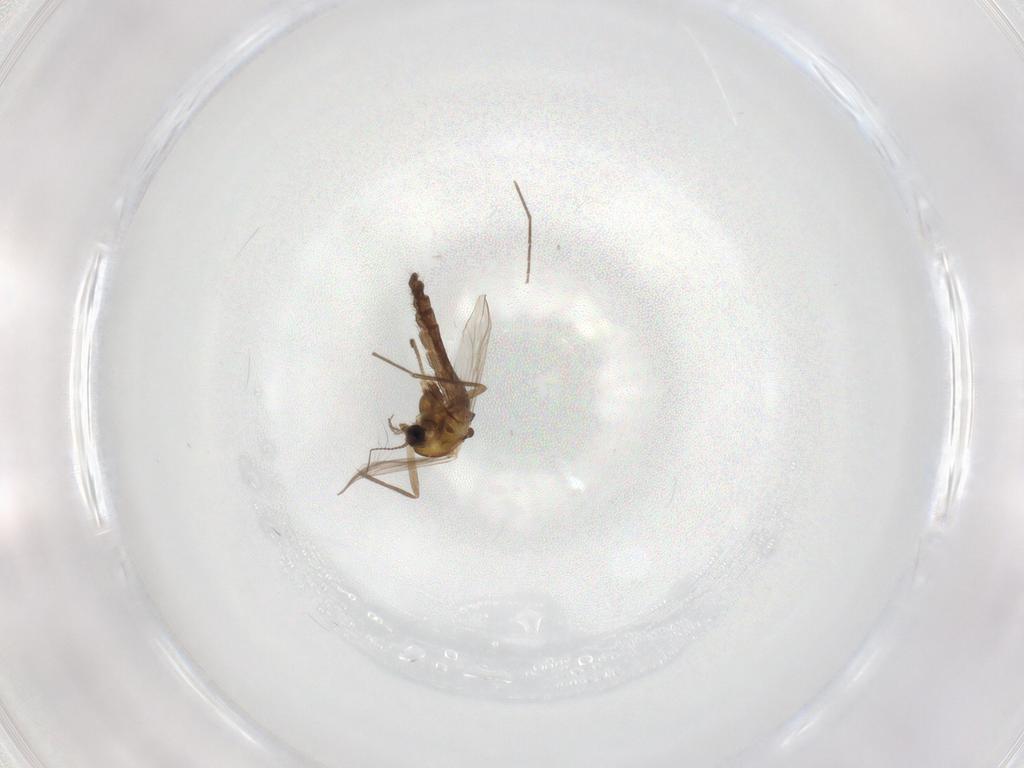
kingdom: Animalia
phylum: Arthropoda
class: Insecta
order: Diptera
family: Chironomidae
